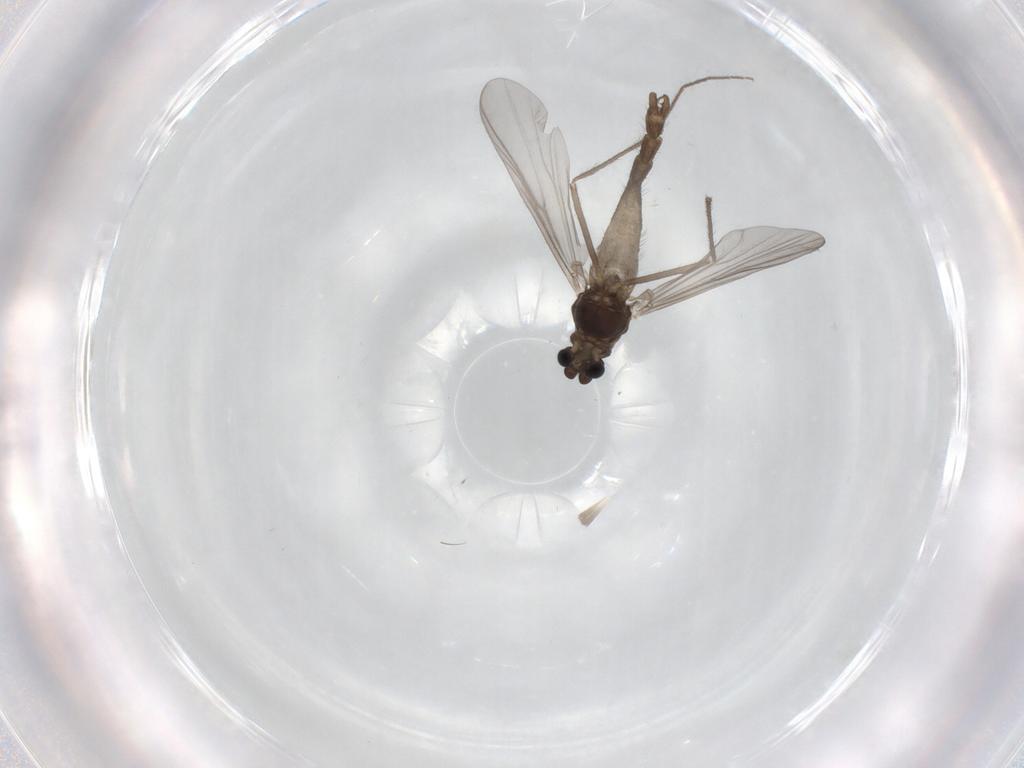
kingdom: Animalia
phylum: Arthropoda
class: Insecta
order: Diptera
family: Chironomidae
